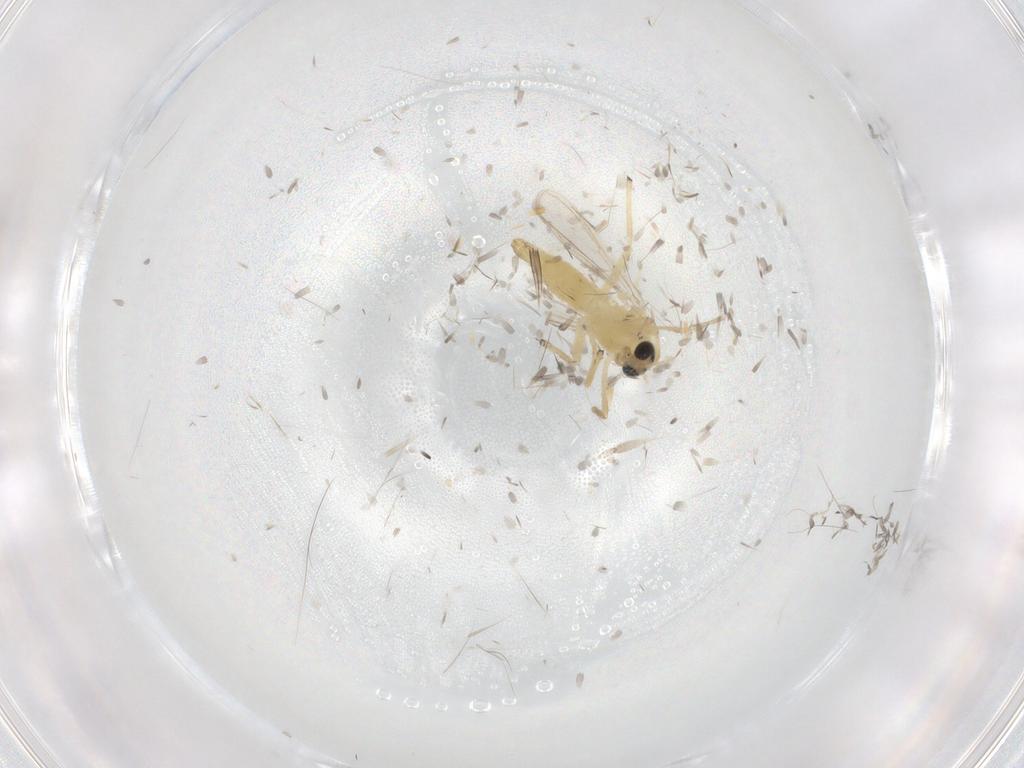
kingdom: Animalia
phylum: Arthropoda
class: Insecta
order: Diptera
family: Chironomidae
